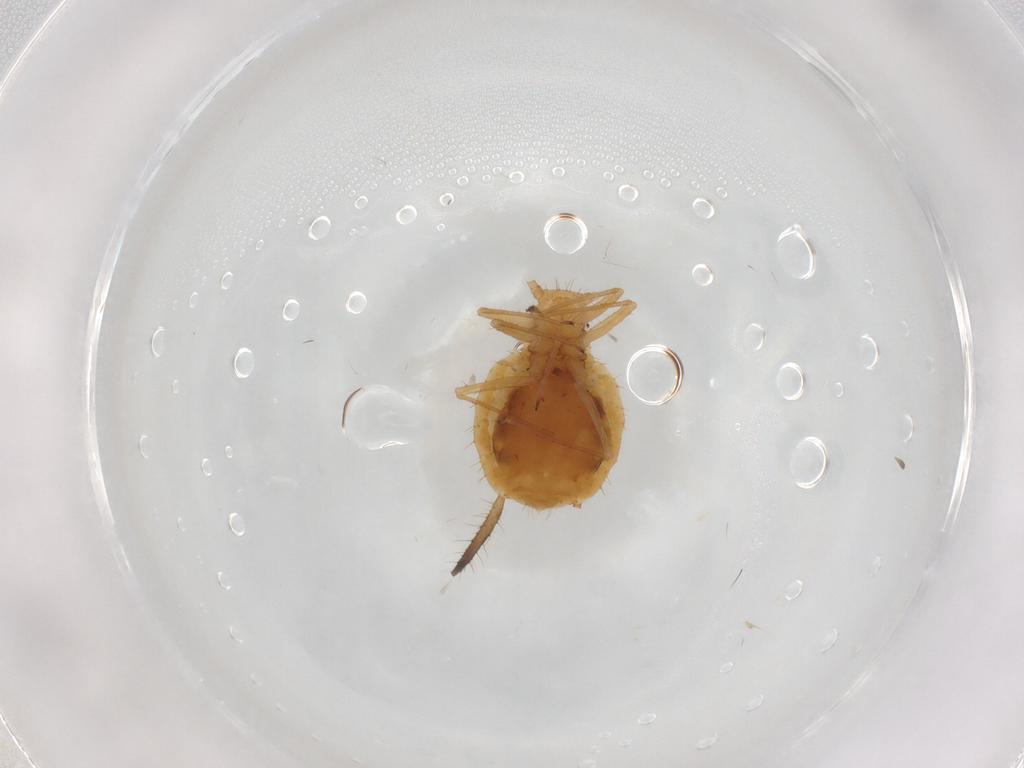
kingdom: Animalia
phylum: Arthropoda
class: Insecta
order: Hemiptera
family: Aphididae
